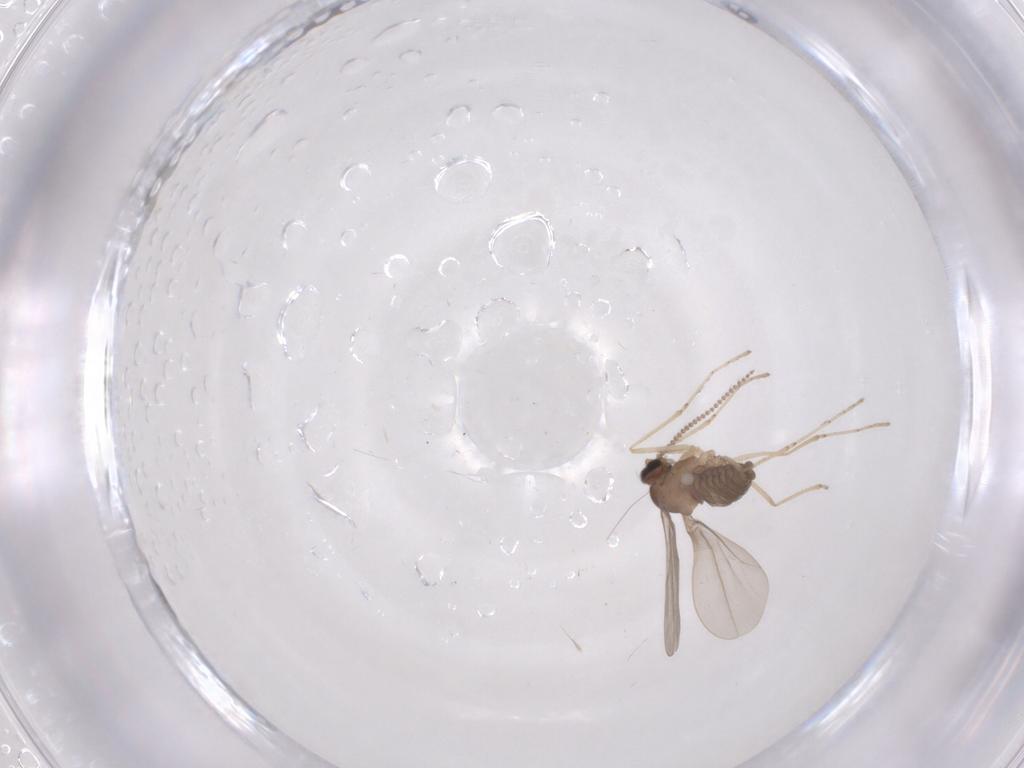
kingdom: Animalia
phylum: Arthropoda
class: Insecta
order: Diptera
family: Cecidomyiidae
